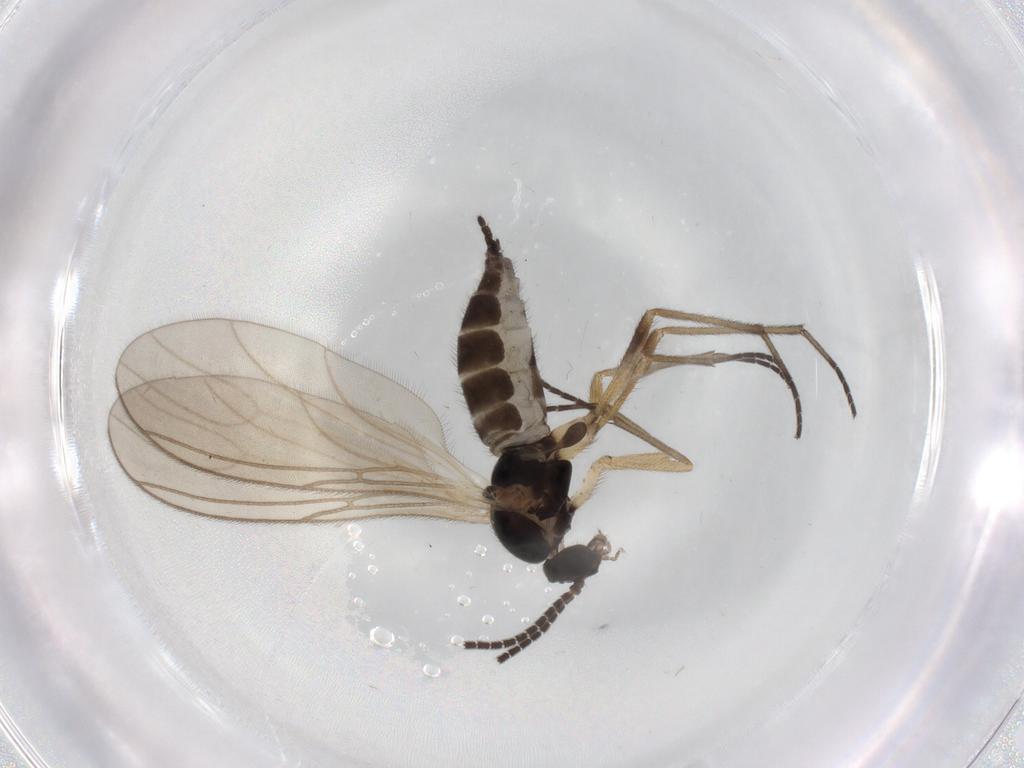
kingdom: Animalia
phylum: Arthropoda
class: Insecta
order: Diptera
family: Sciaridae
